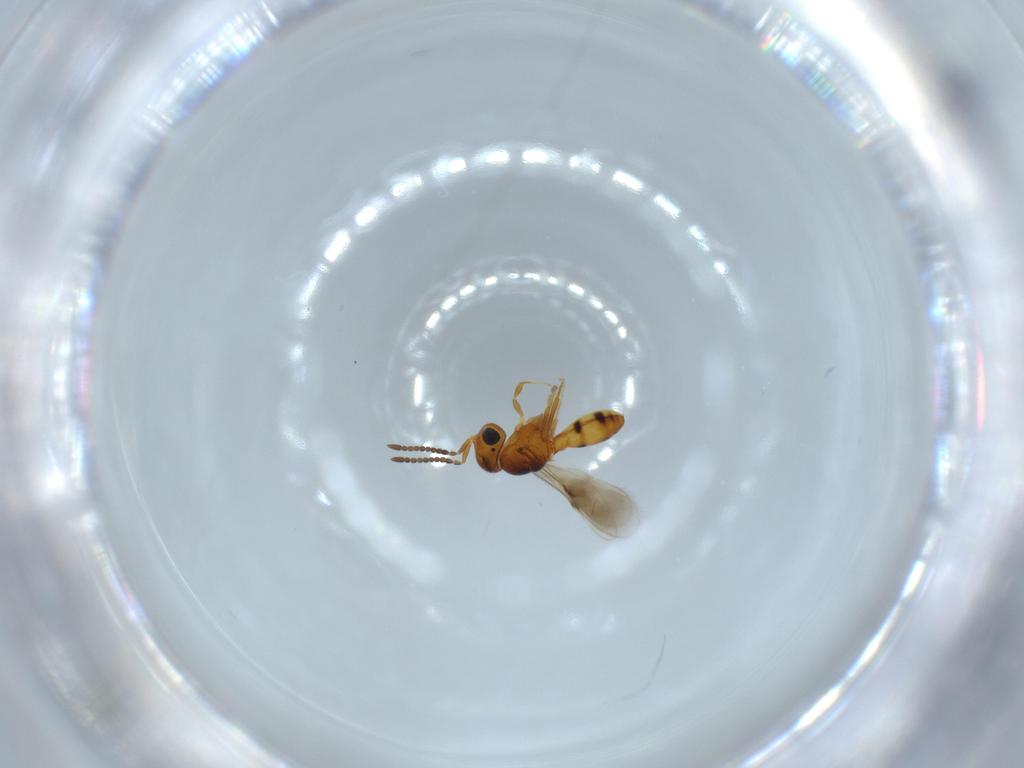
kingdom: Animalia
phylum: Arthropoda
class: Insecta
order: Hymenoptera
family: Scelionidae
